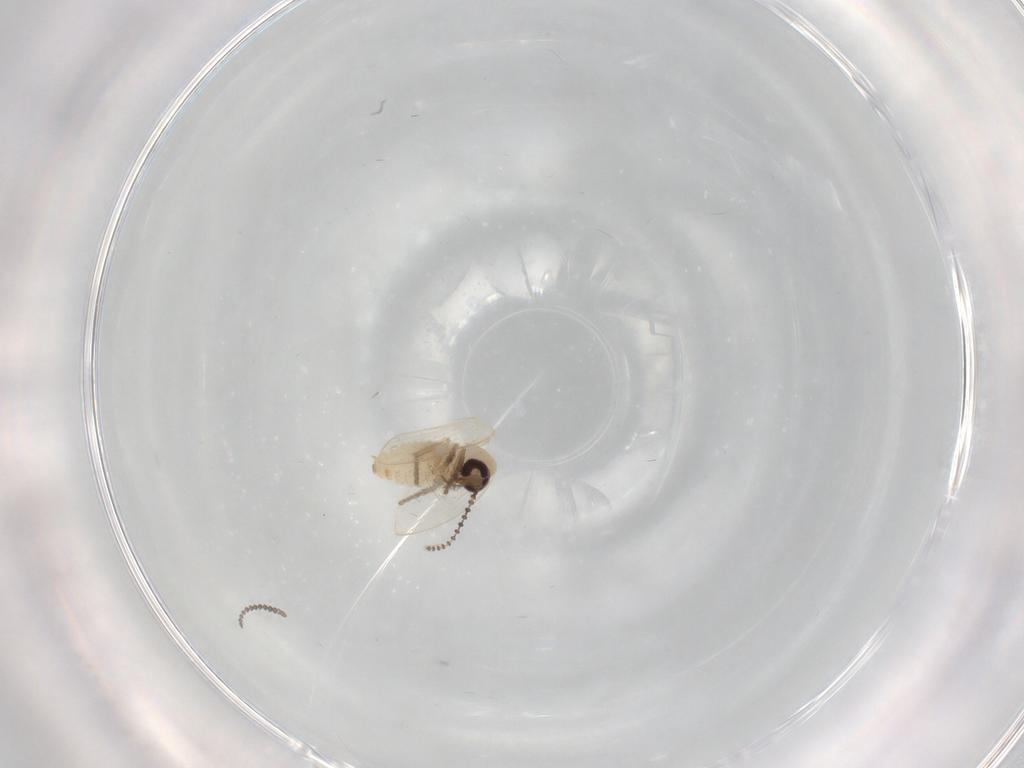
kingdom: Animalia
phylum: Arthropoda
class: Insecta
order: Diptera
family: Psychodidae
